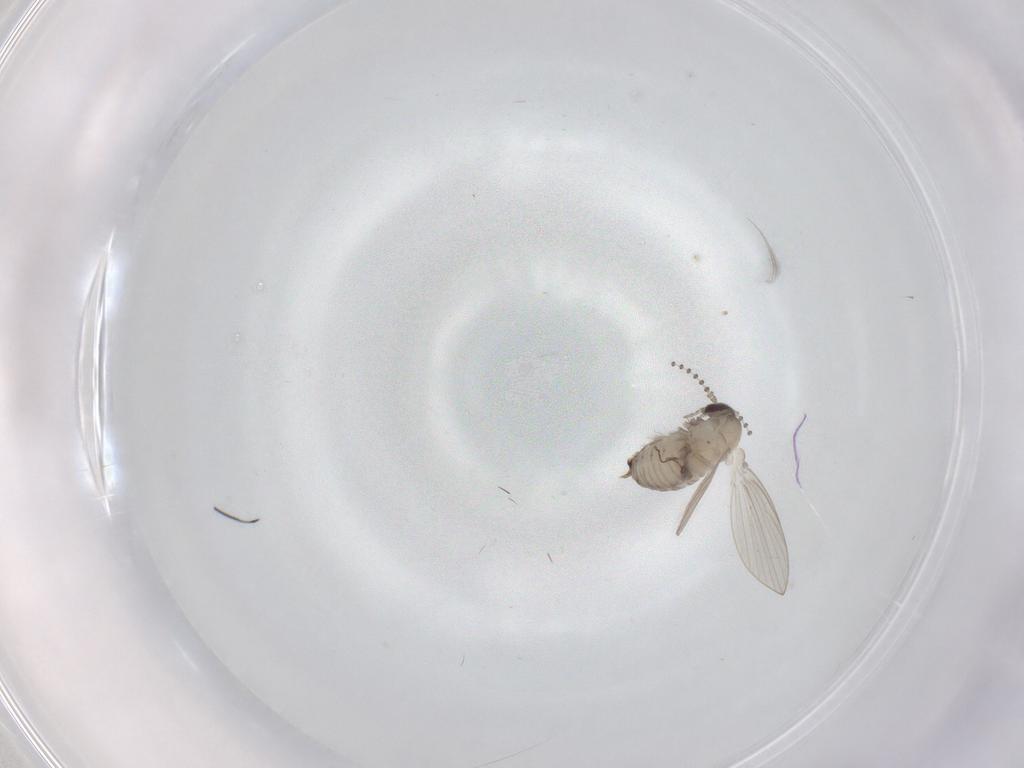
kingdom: Animalia
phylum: Arthropoda
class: Insecta
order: Diptera
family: Psychodidae
